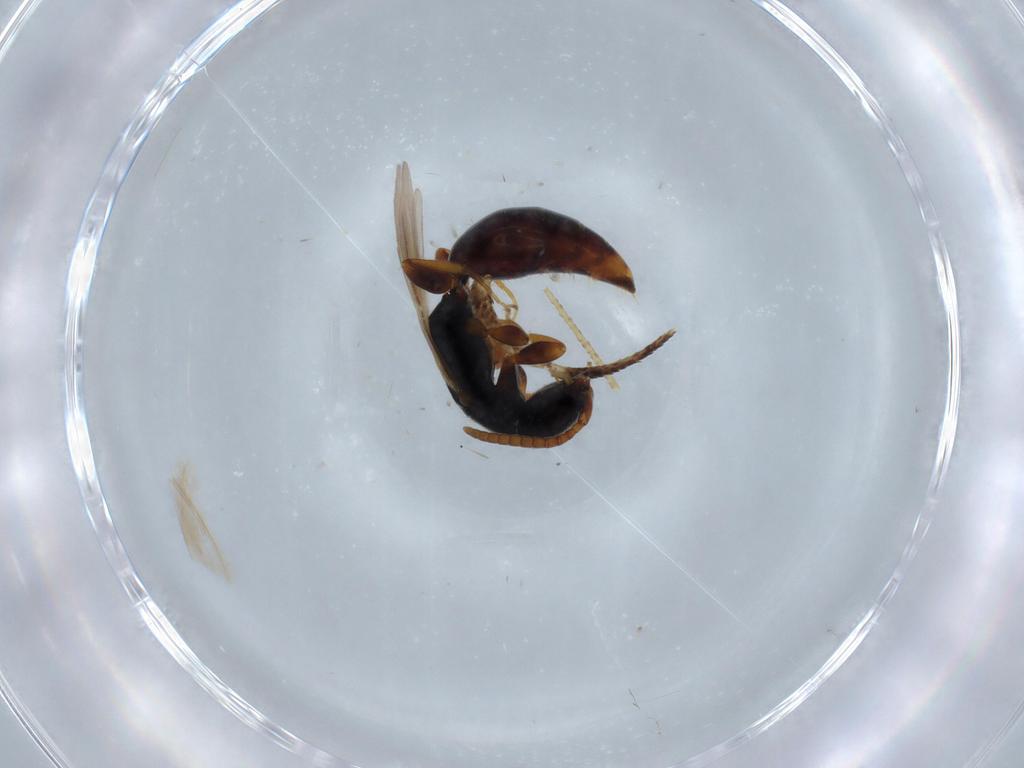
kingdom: Animalia
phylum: Arthropoda
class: Insecta
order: Hymenoptera
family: Bethylidae
